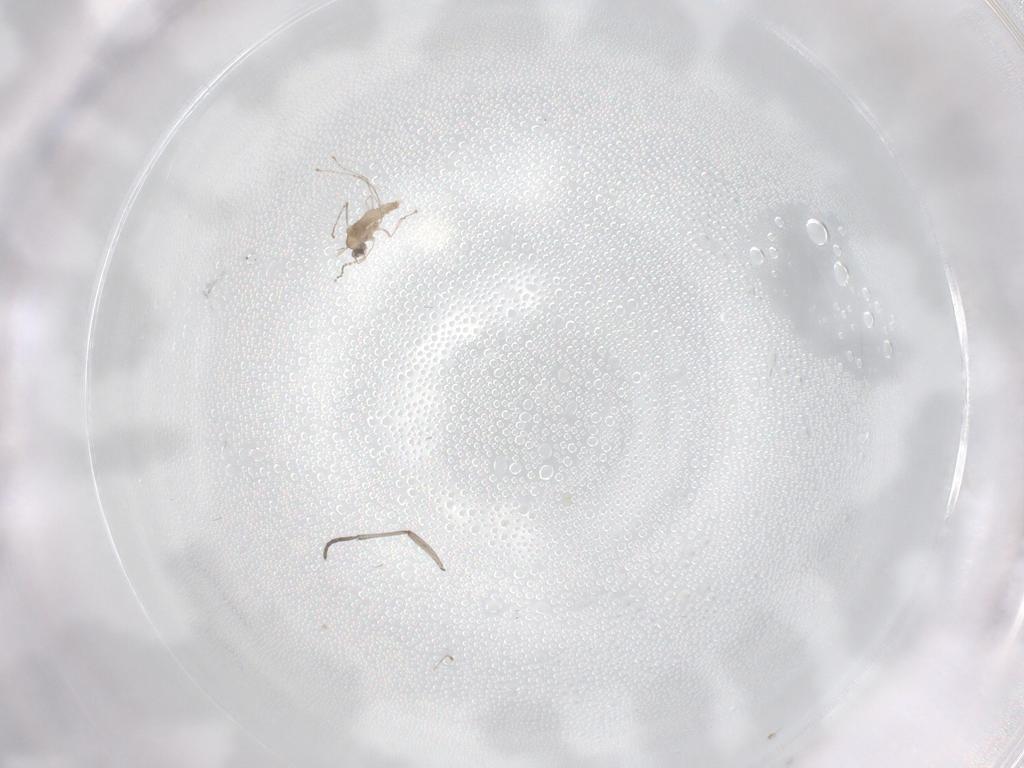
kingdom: Animalia
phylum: Arthropoda
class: Insecta
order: Diptera
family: Sciaridae
